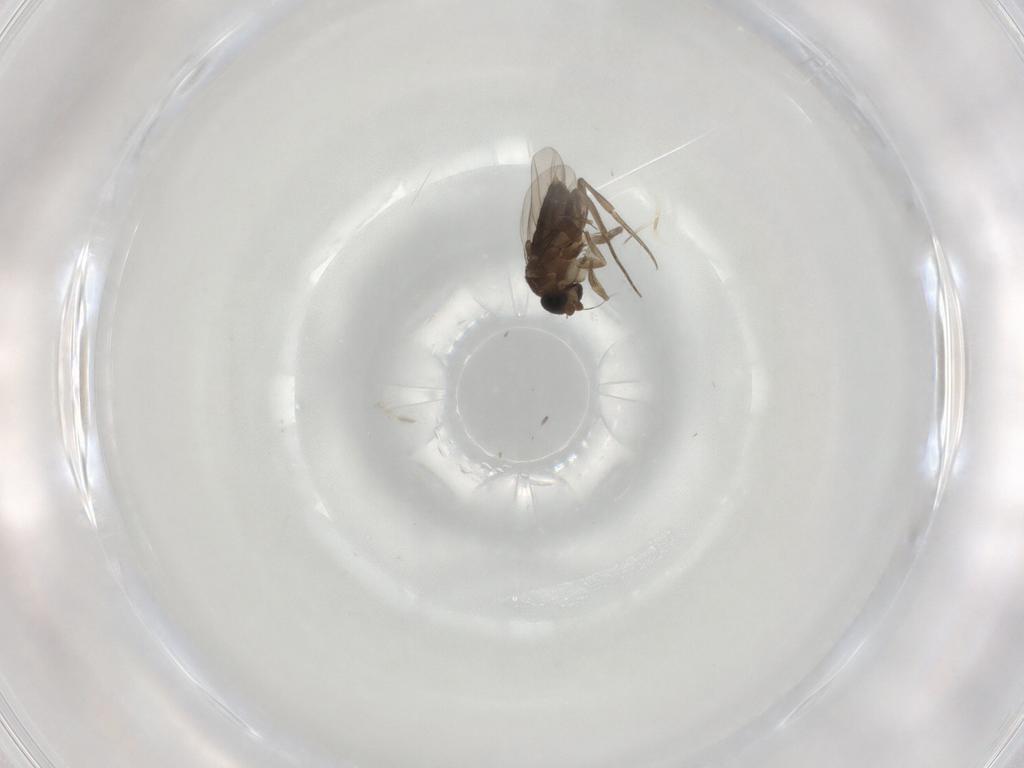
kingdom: Animalia
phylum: Arthropoda
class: Insecta
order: Diptera
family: Phoridae
